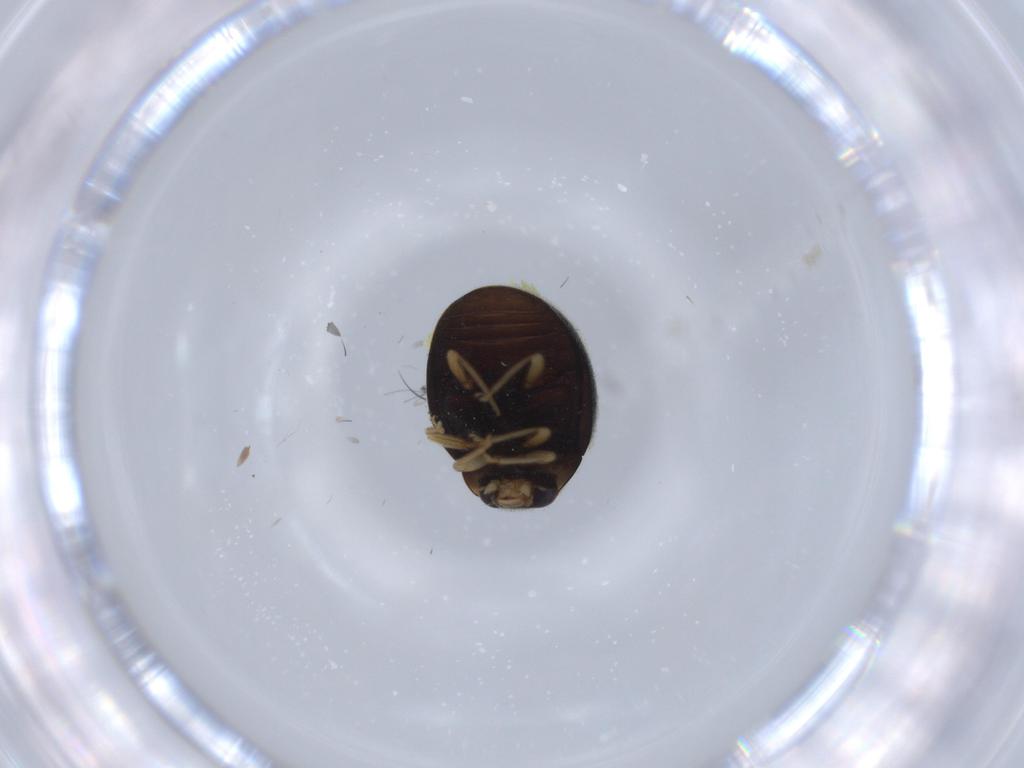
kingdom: Animalia
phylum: Arthropoda
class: Insecta
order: Coleoptera
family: Coccinellidae
